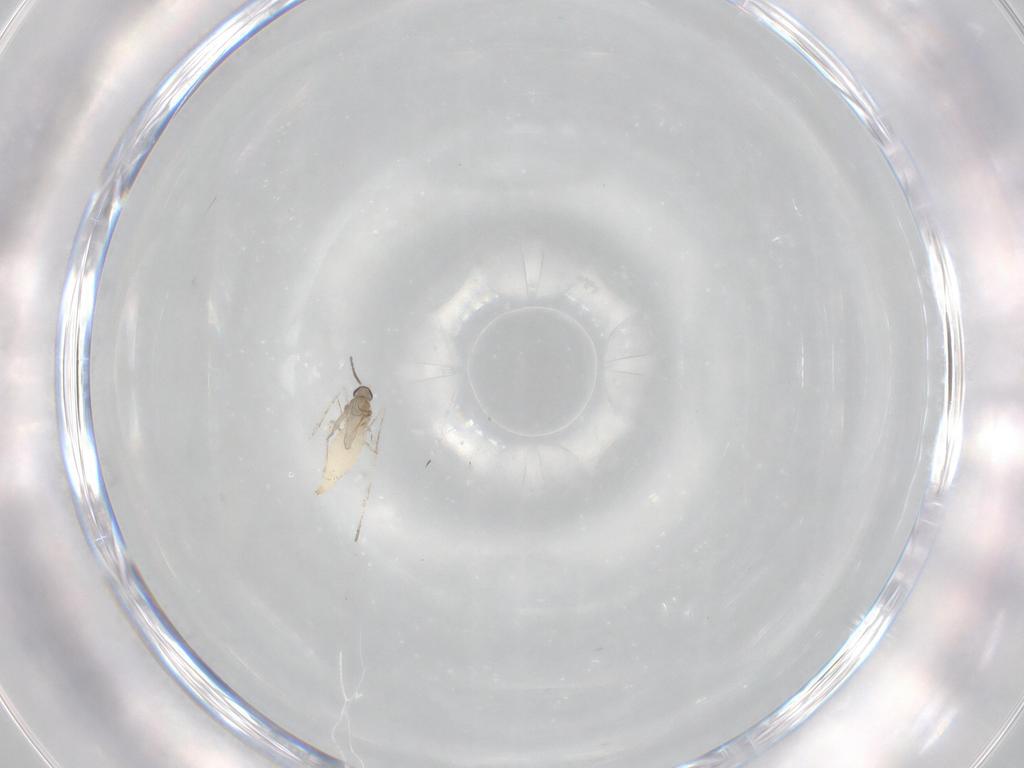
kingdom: Animalia
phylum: Arthropoda
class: Insecta
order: Diptera
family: Cecidomyiidae
